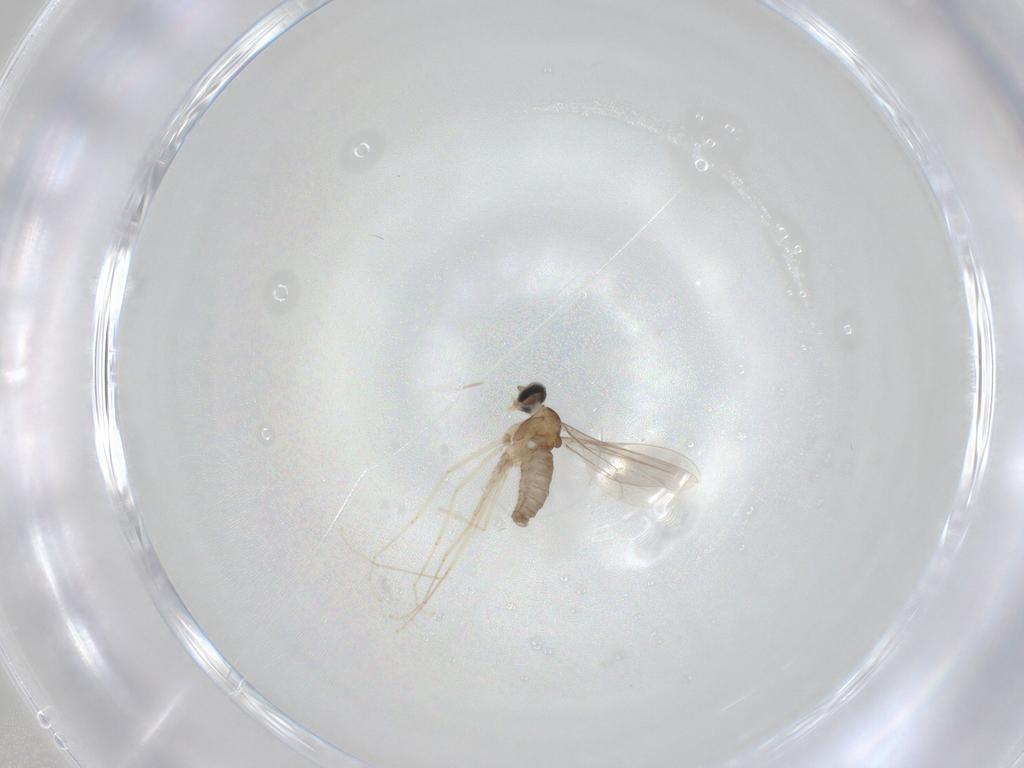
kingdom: Animalia
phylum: Arthropoda
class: Insecta
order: Diptera
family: Cecidomyiidae
